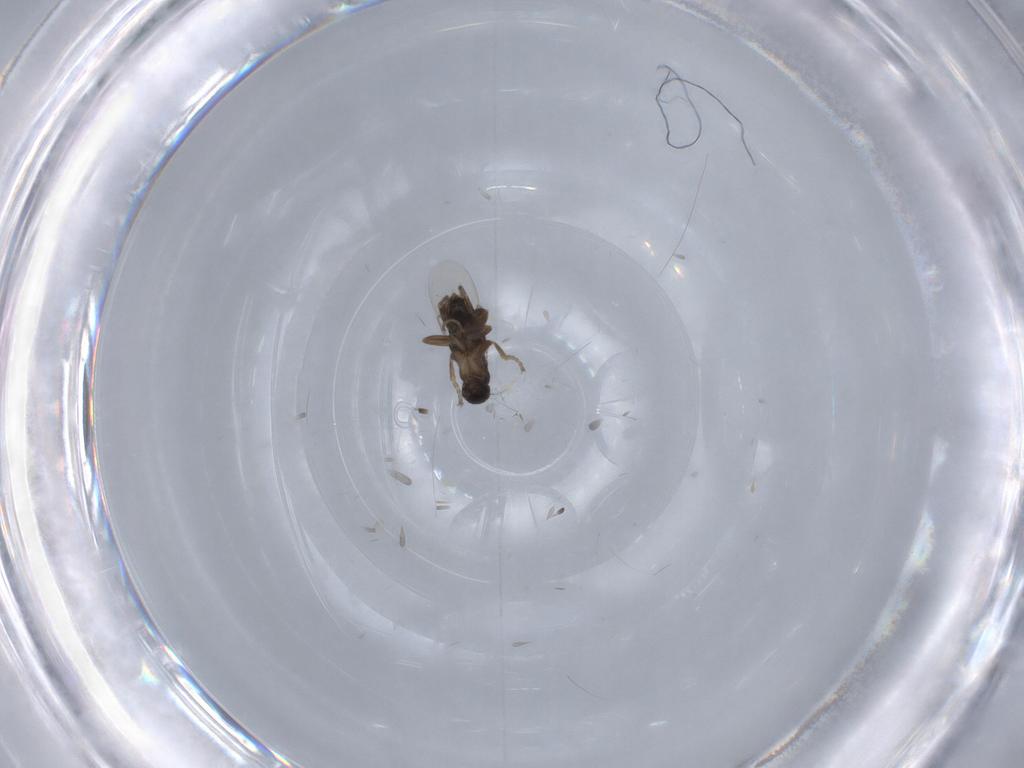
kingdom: Animalia
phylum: Arthropoda
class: Insecta
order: Diptera
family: Phoridae
